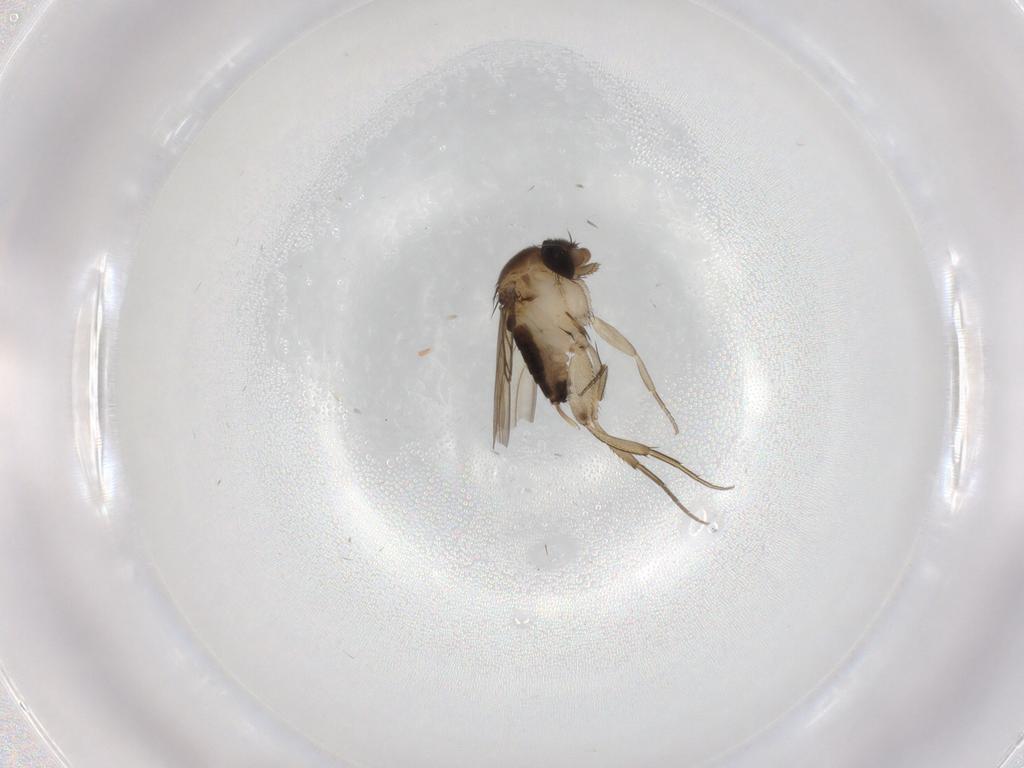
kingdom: Animalia
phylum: Arthropoda
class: Insecta
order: Diptera
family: Phoridae
